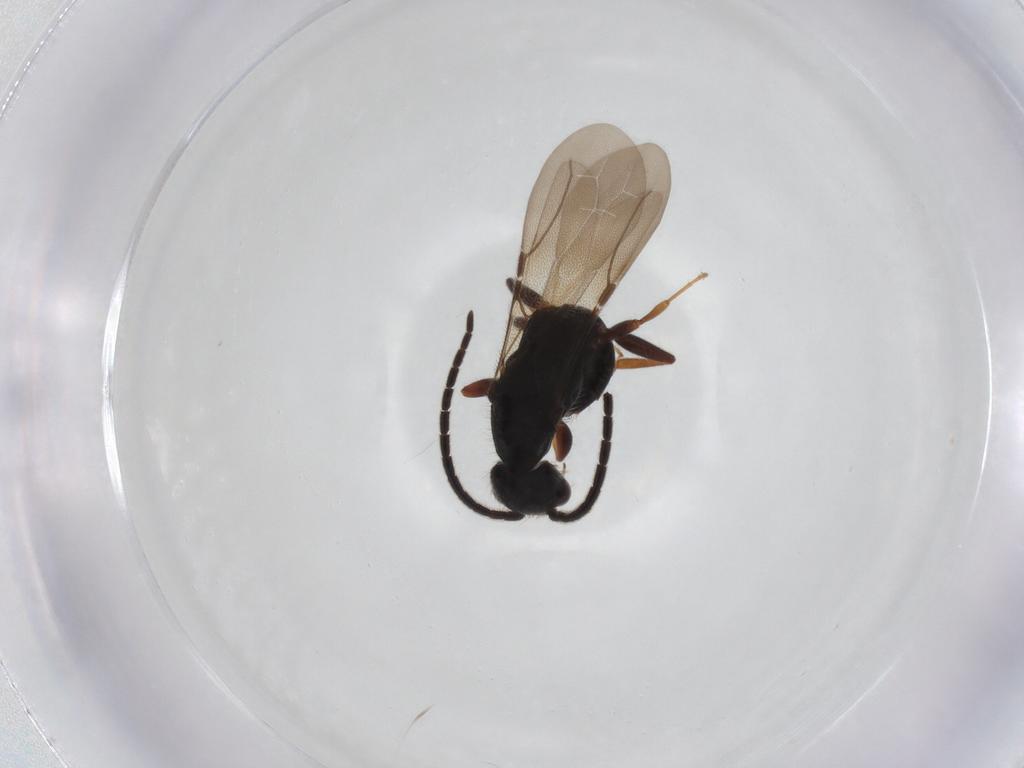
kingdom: Animalia
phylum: Arthropoda
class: Insecta
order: Hymenoptera
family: Bethylidae
